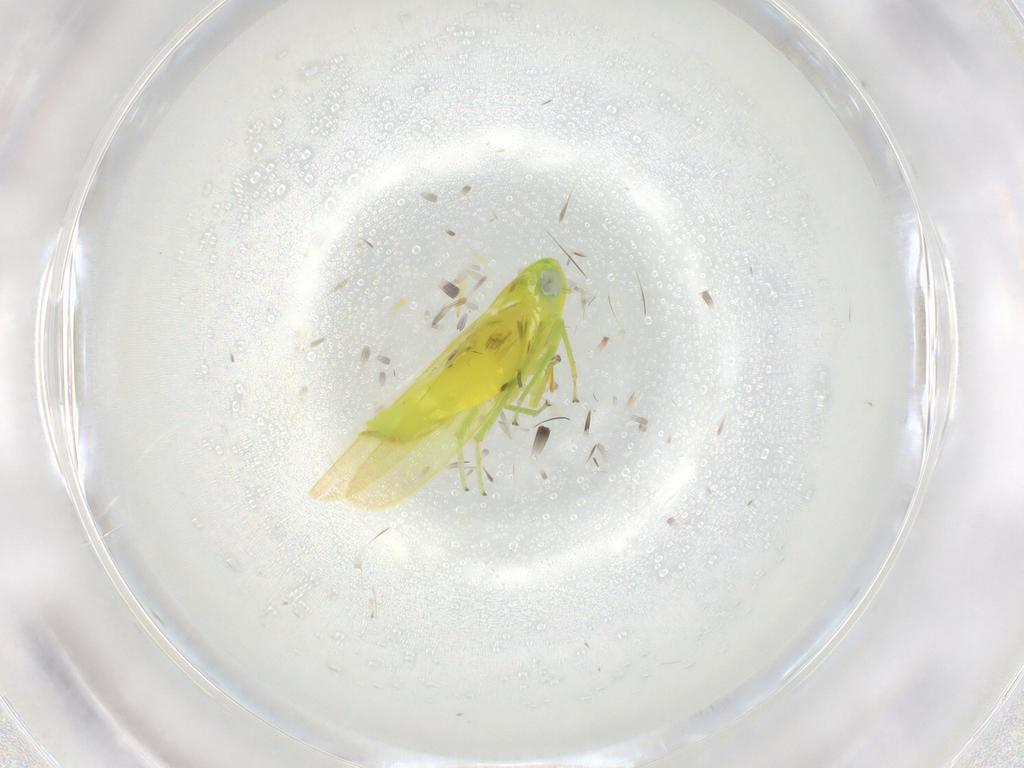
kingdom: Animalia
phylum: Arthropoda
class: Insecta
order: Hemiptera
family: Cicadellidae
